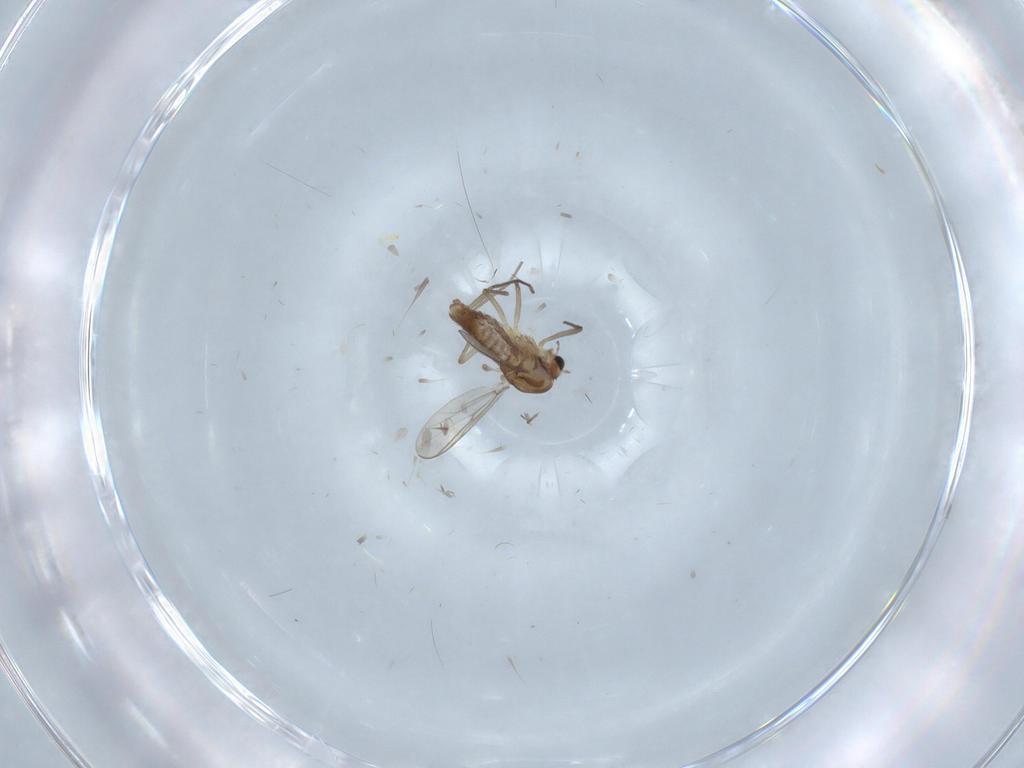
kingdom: Animalia
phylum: Arthropoda
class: Insecta
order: Diptera
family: Chironomidae
